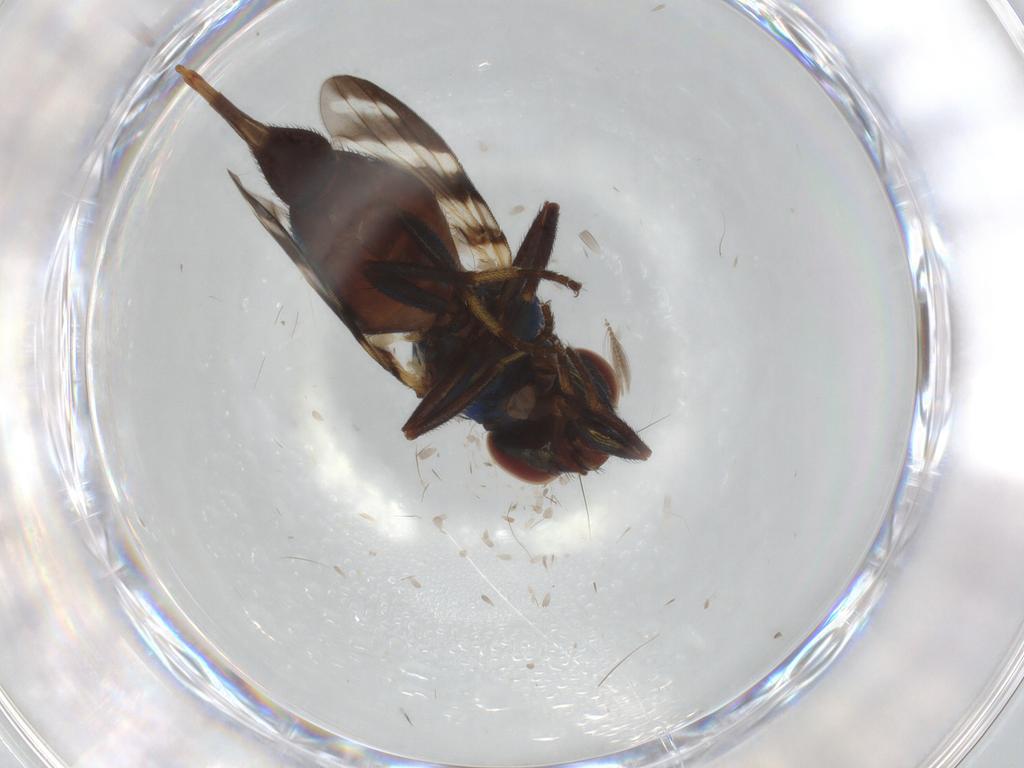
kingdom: Animalia
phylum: Arthropoda
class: Insecta
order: Diptera
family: Ulidiidae
